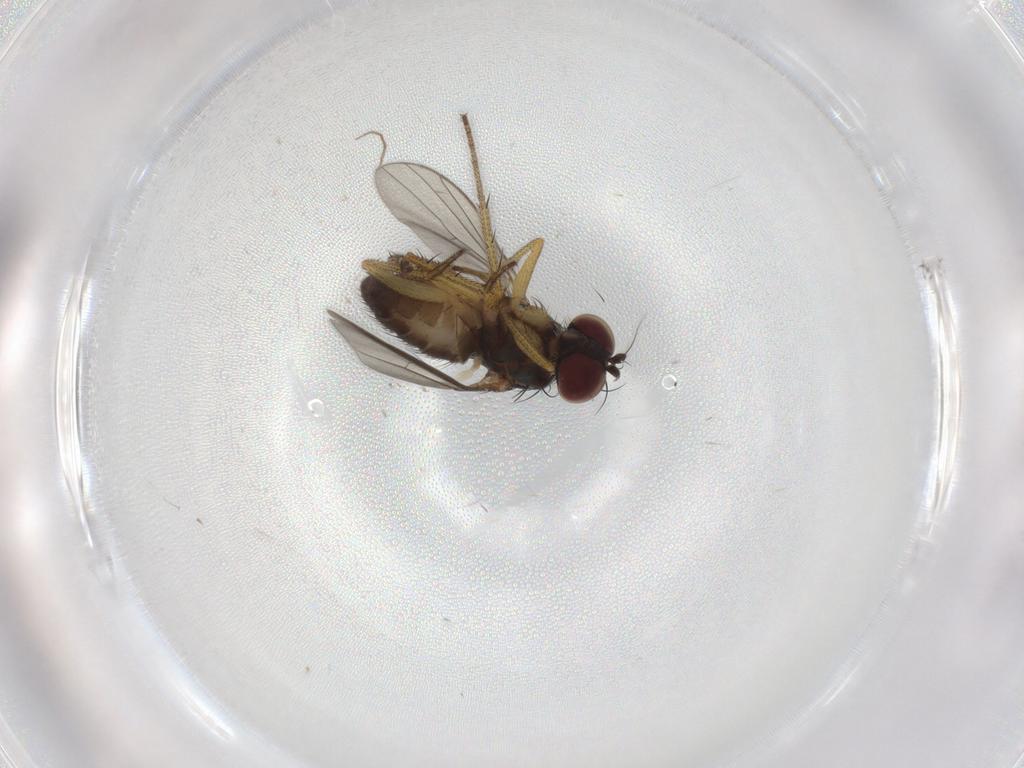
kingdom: Animalia
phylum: Arthropoda
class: Insecta
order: Diptera
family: Dolichopodidae
